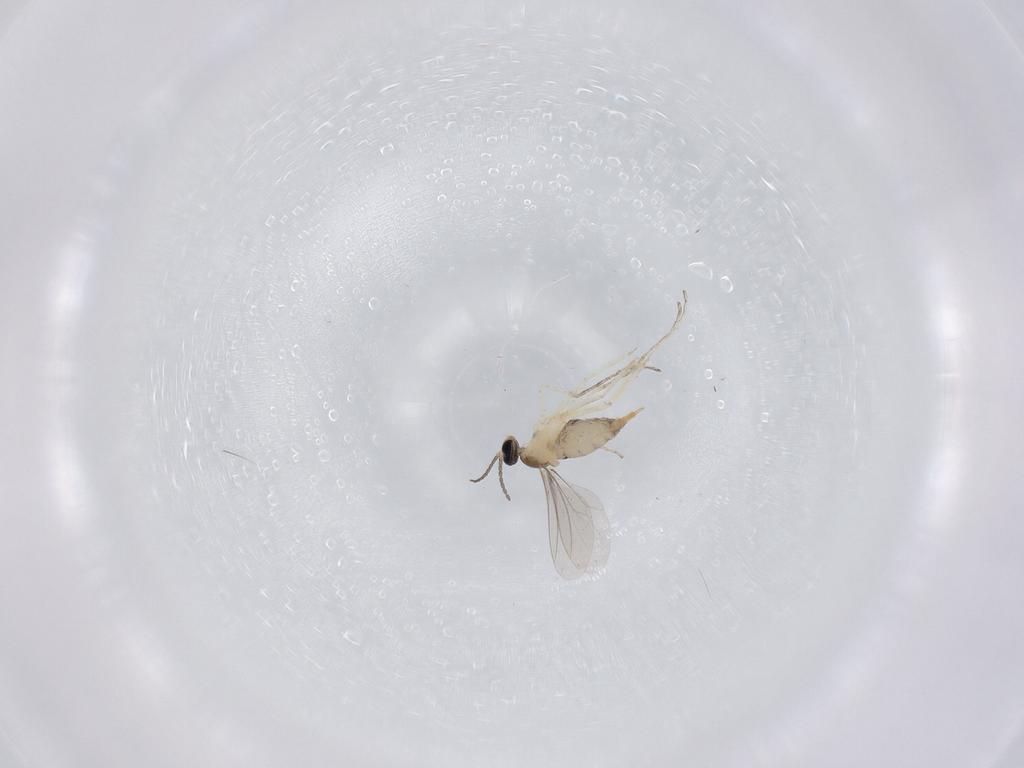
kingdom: Animalia
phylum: Arthropoda
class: Insecta
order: Diptera
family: Cecidomyiidae
